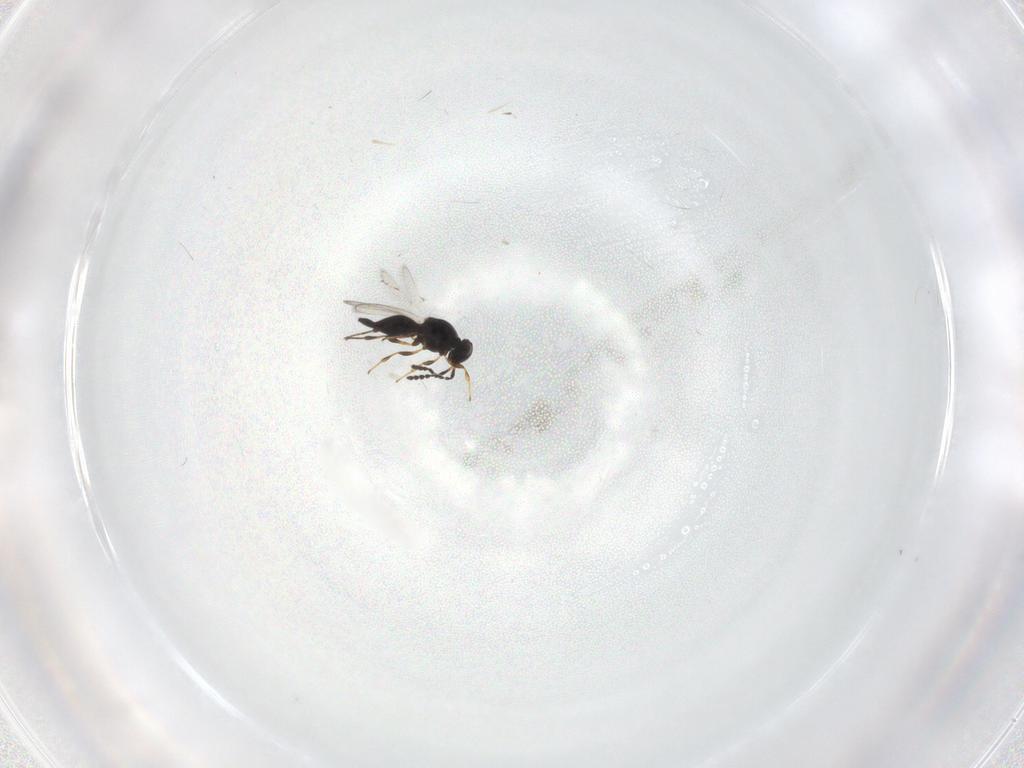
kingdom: Animalia
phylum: Arthropoda
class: Insecta
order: Hymenoptera
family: Platygastridae
